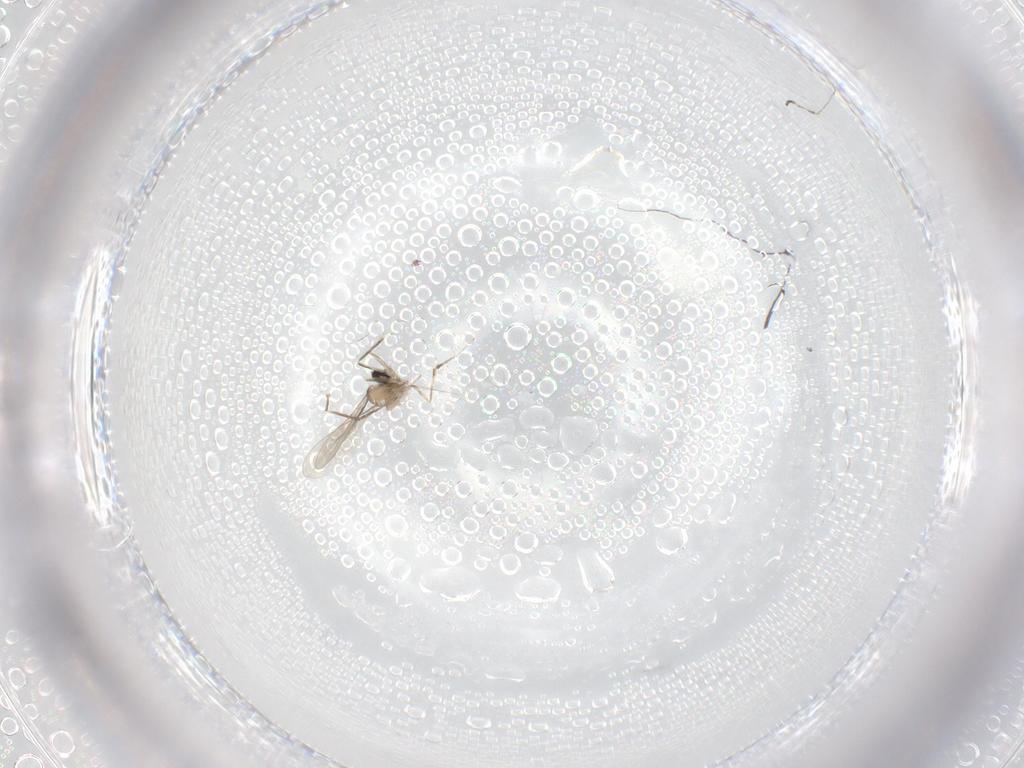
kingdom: Animalia
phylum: Arthropoda
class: Insecta
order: Diptera
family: Cecidomyiidae
